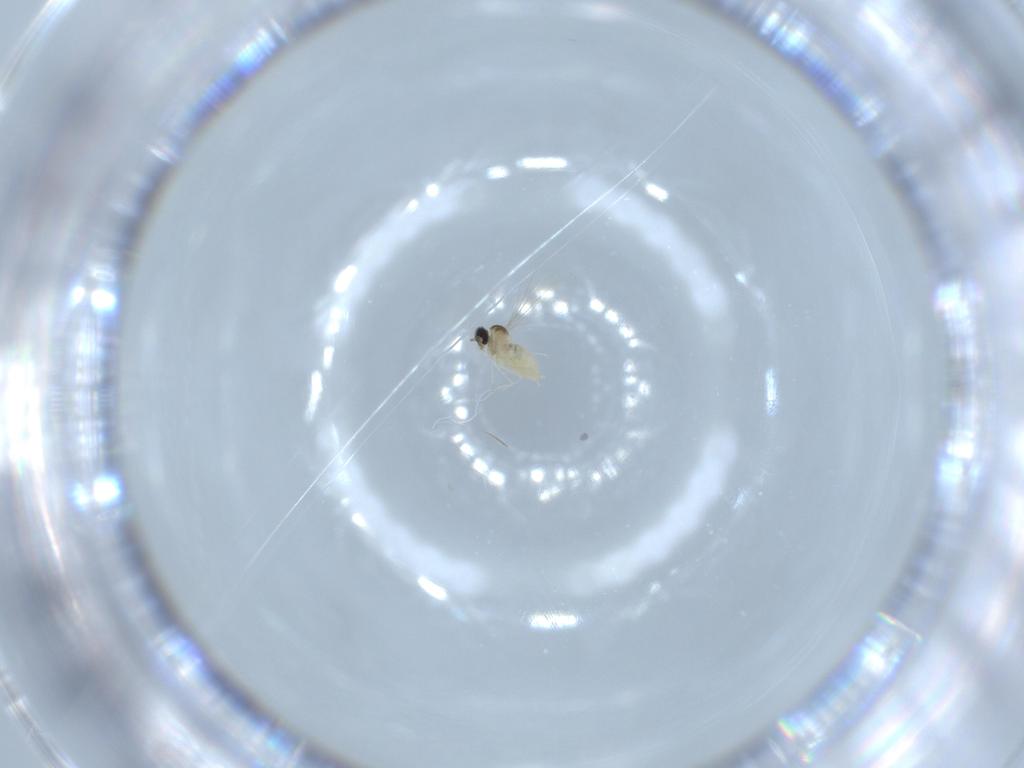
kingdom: Animalia
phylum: Arthropoda
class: Insecta
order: Diptera
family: Cecidomyiidae
